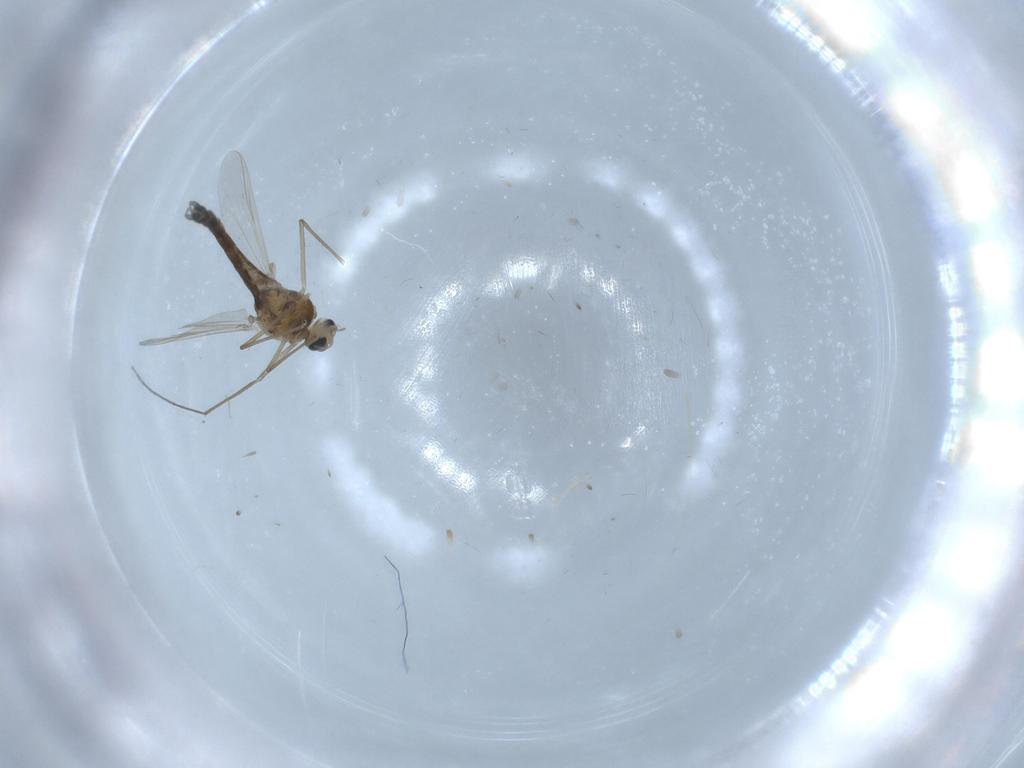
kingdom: Animalia
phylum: Arthropoda
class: Insecta
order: Diptera
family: Chironomidae
